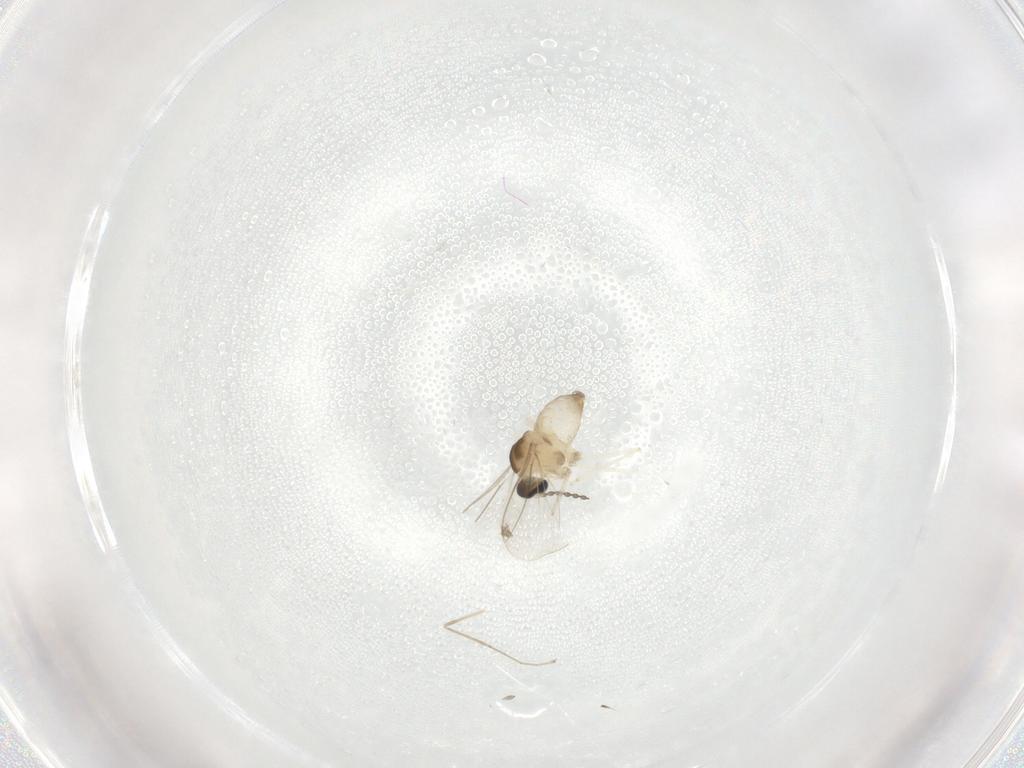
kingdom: Animalia
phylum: Arthropoda
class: Insecta
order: Diptera
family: Cecidomyiidae
